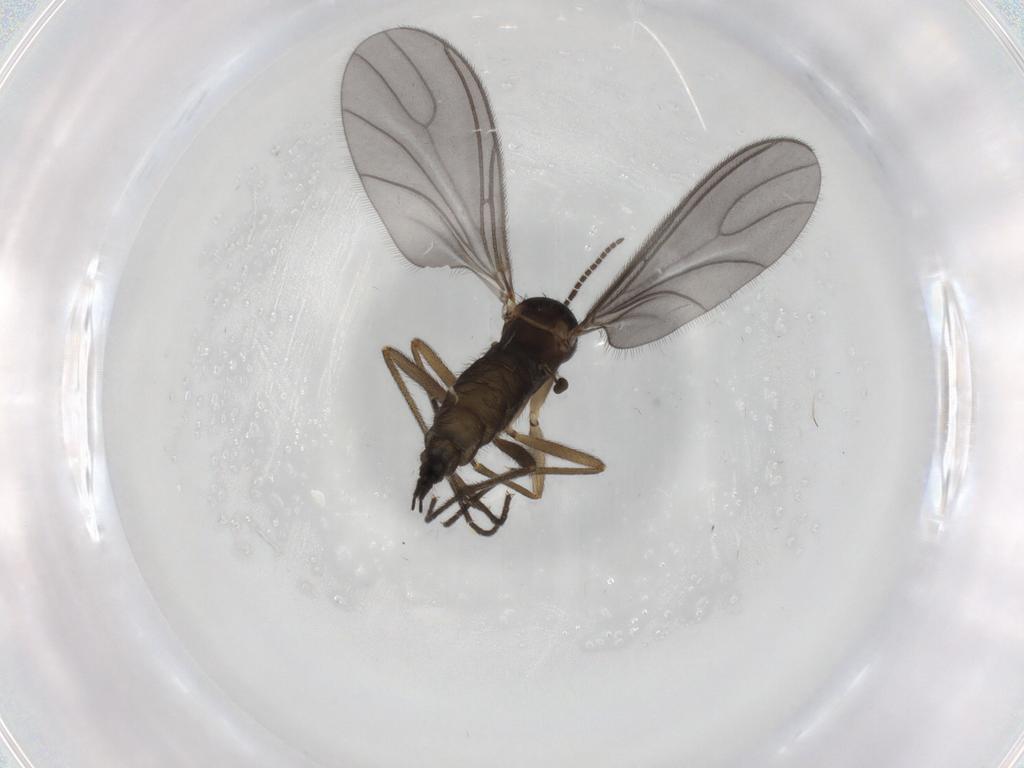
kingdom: Animalia
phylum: Arthropoda
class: Insecta
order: Diptera
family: Sciaridae
